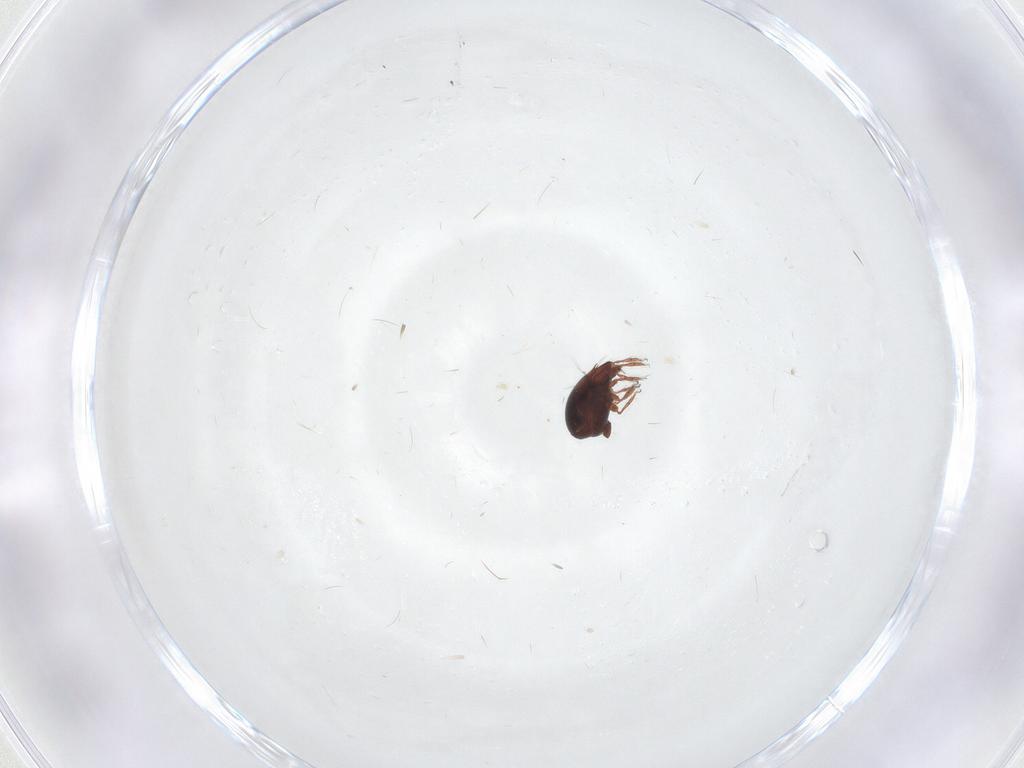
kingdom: Animalia
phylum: Arthropoda
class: Arachnida
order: Sarcoptiformes
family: Ceratozetidae
